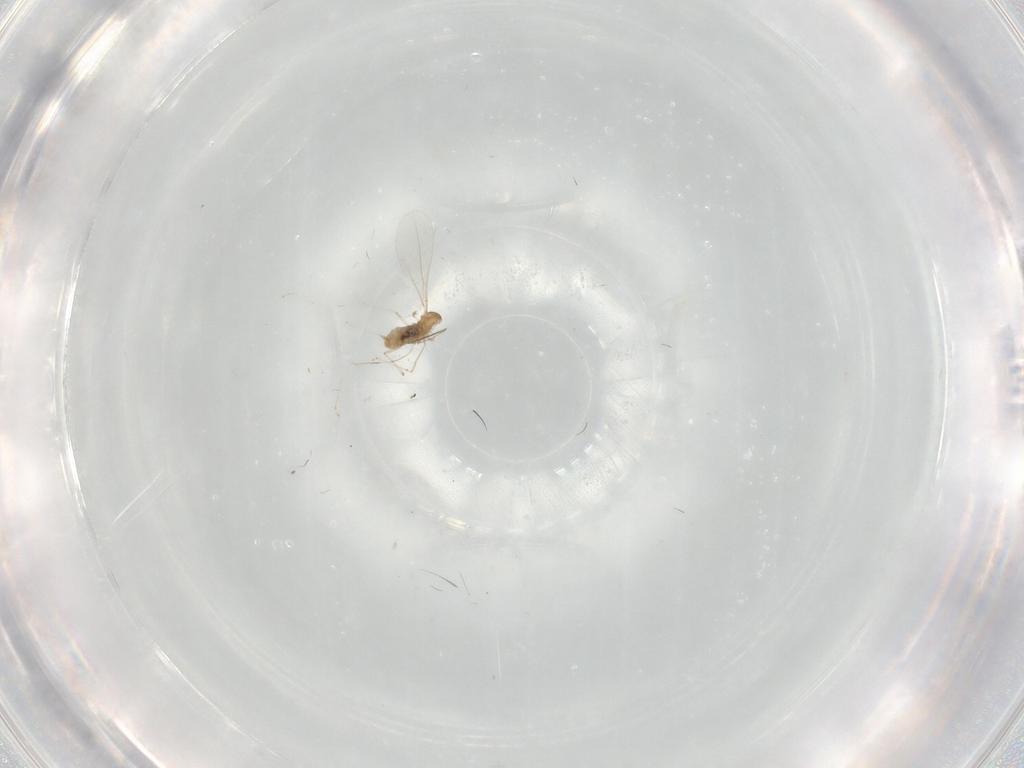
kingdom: Animalia
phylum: Arthropoda
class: Insecta
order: Diptera
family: Cecidomyiidae
